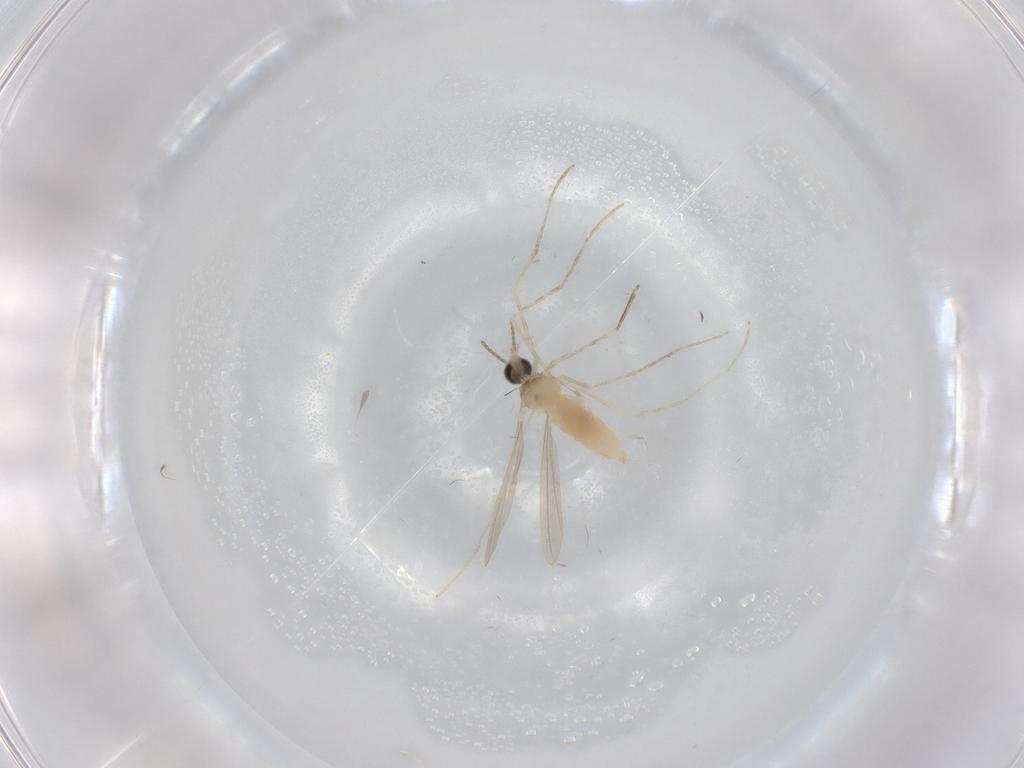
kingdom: Animalia
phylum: Arthropoda
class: Insecta
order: Diptera
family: Cecidomyiidae
